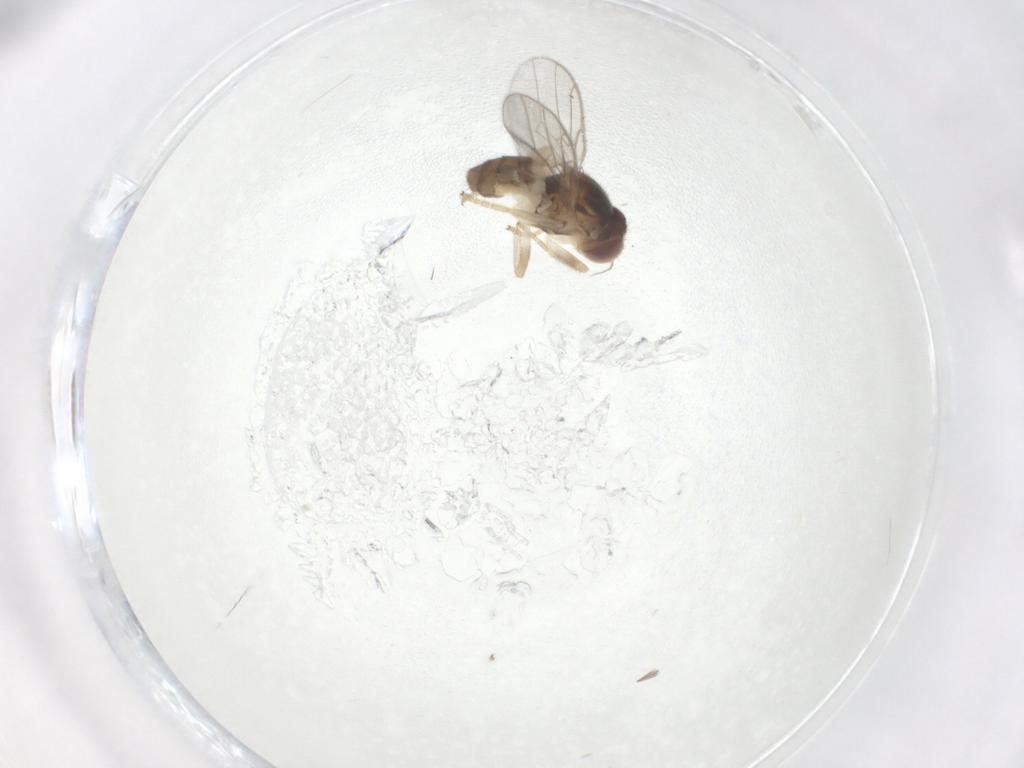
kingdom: Animalia
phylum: Arthropoda
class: Insecta
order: Diptera
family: Chloropidae
